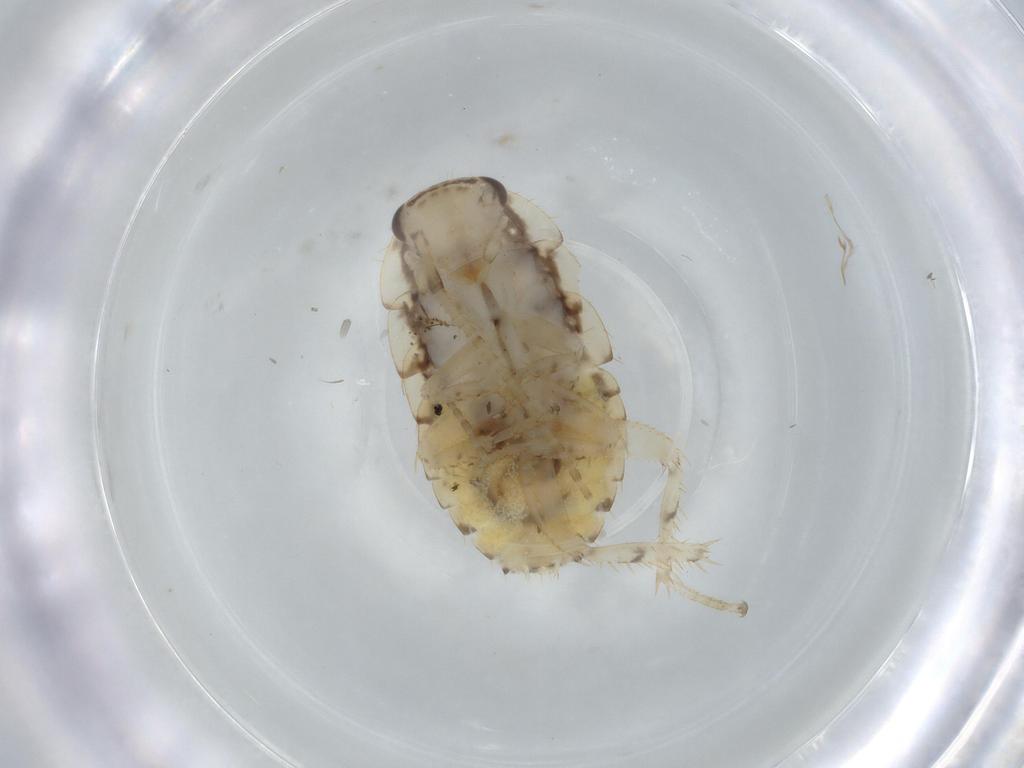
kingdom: Animalia
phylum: Arthropoda
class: Insecta
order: Blattodea
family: Ectobiidae
